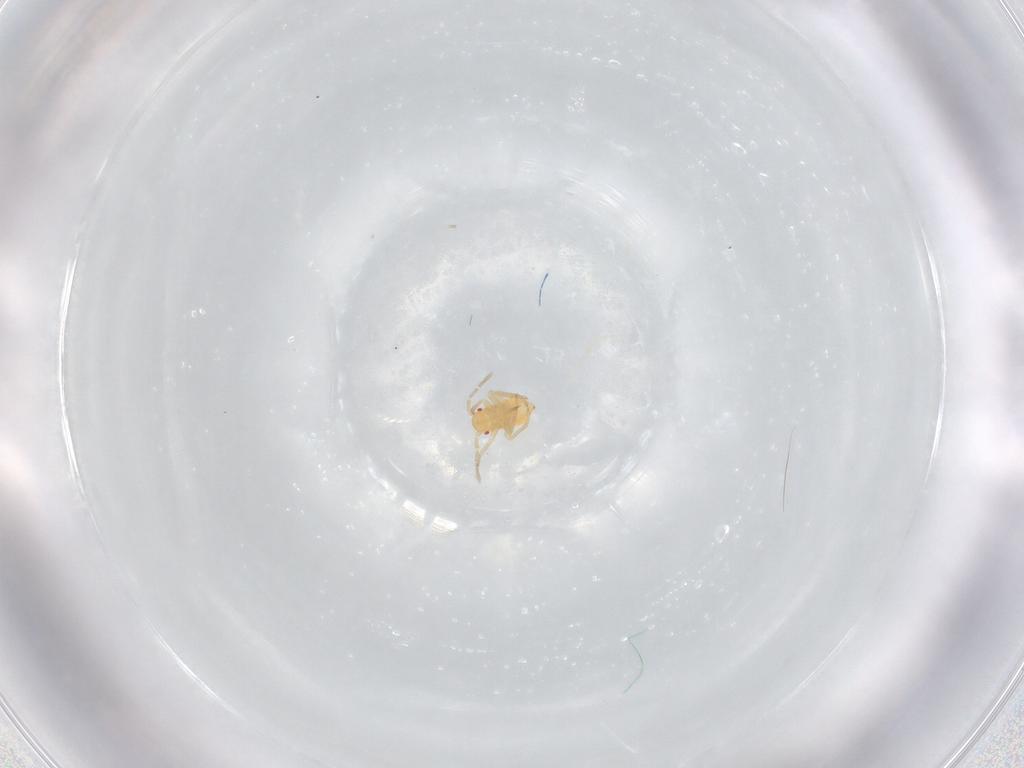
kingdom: Animalia
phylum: Arthropoda
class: Insecta
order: Hemiptera
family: Miridae
